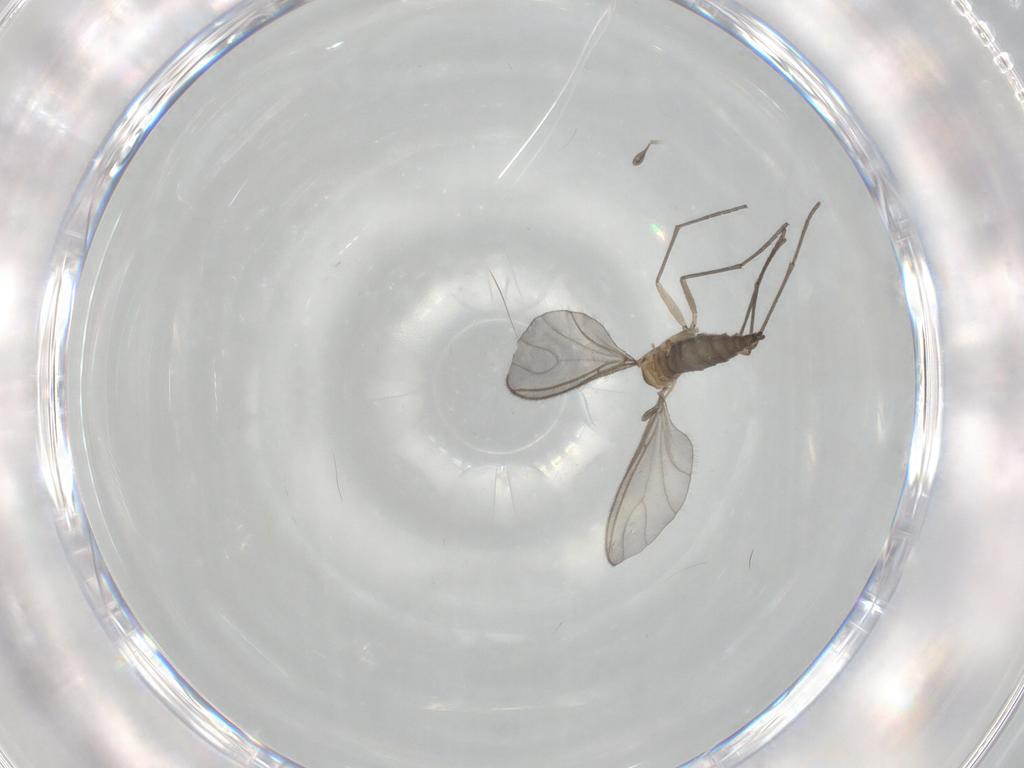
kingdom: Animalia
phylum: Arthropoda
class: Insecta
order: Diptera
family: Sciaridae
